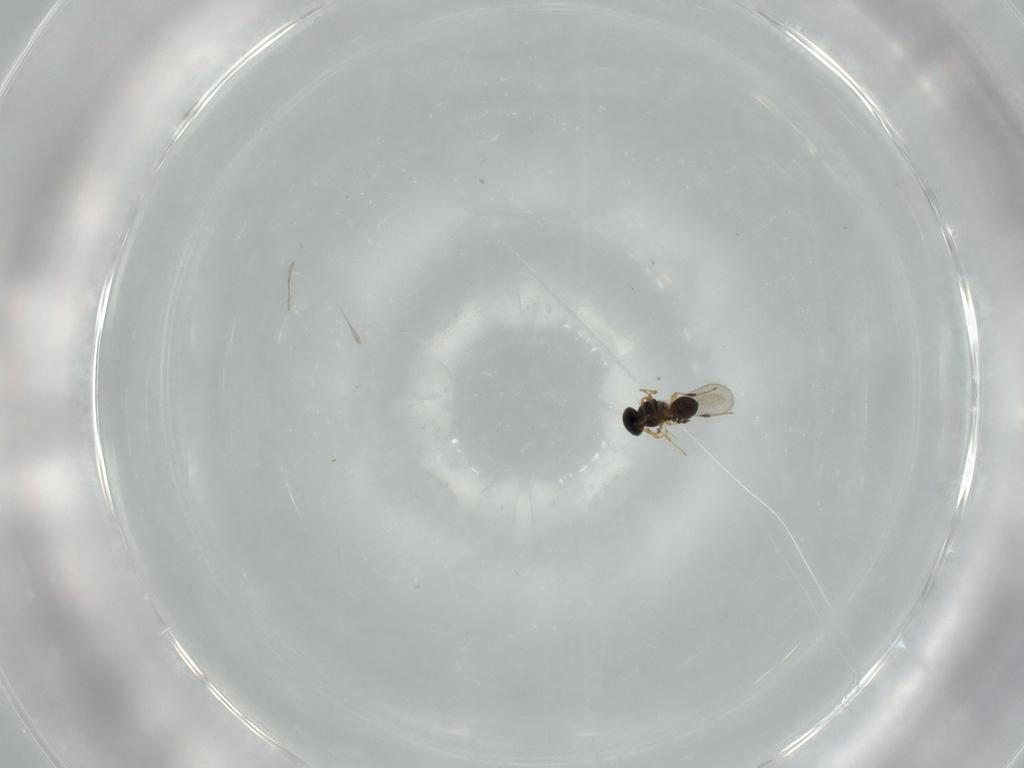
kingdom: Animalia
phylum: Arthropoda
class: Insecta
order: Hymenoptera
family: Platygastridae
